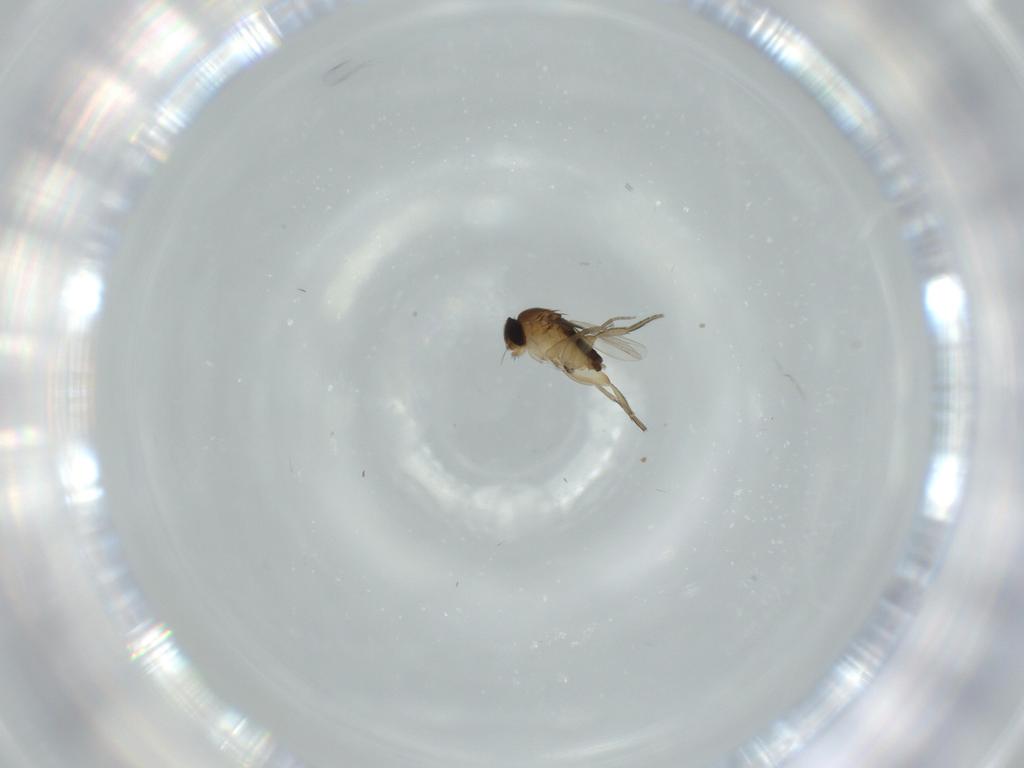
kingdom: Animalia
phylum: Arthropoda
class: Insecta
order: Diptera
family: Phoridae
